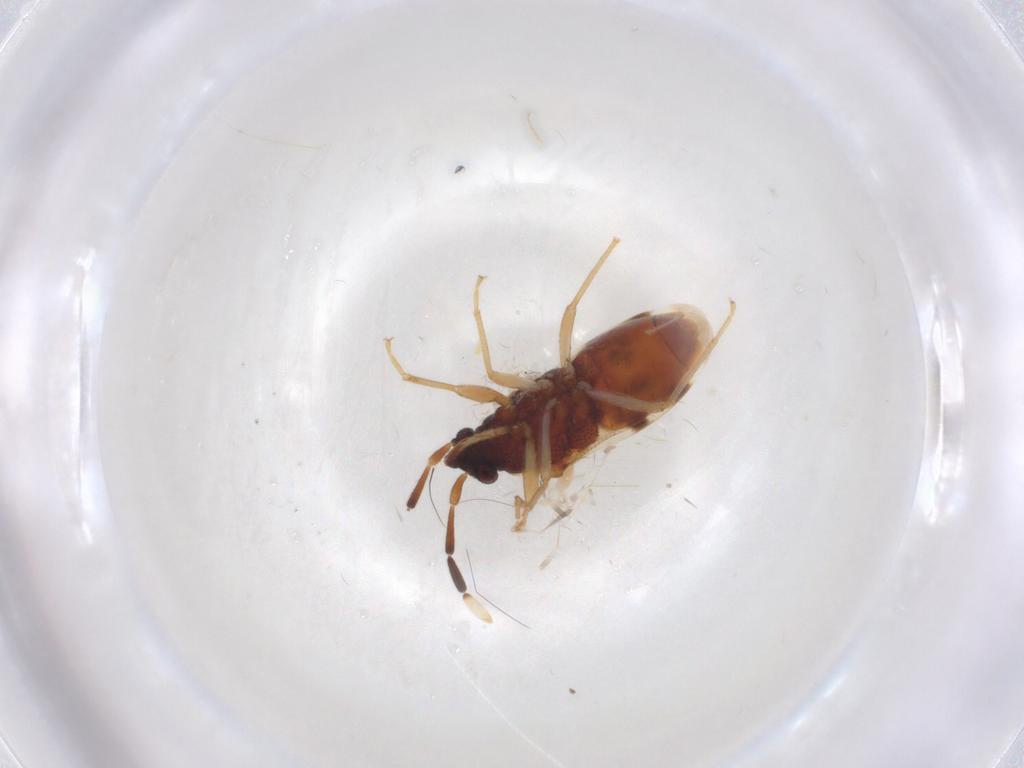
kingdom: Animalia
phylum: Arthropoda
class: Insecta
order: Hemiptera
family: Rhyparochromidae
